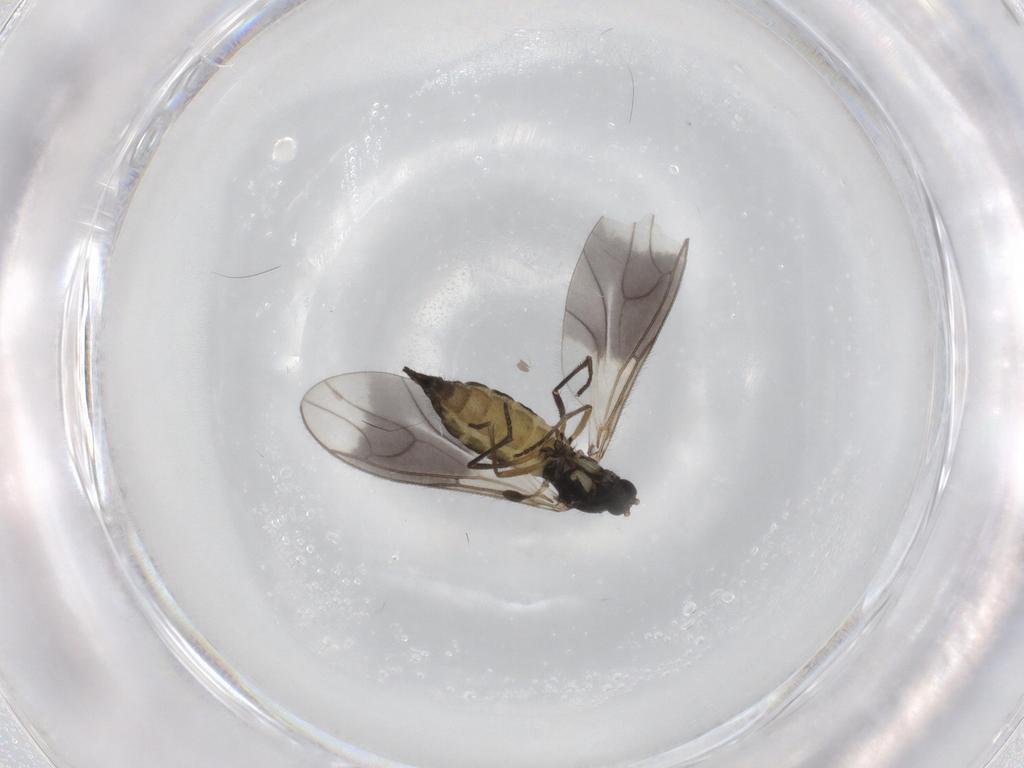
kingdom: Animalia
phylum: Arthropoda
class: Insecta
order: Diptera
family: Sciaridae
